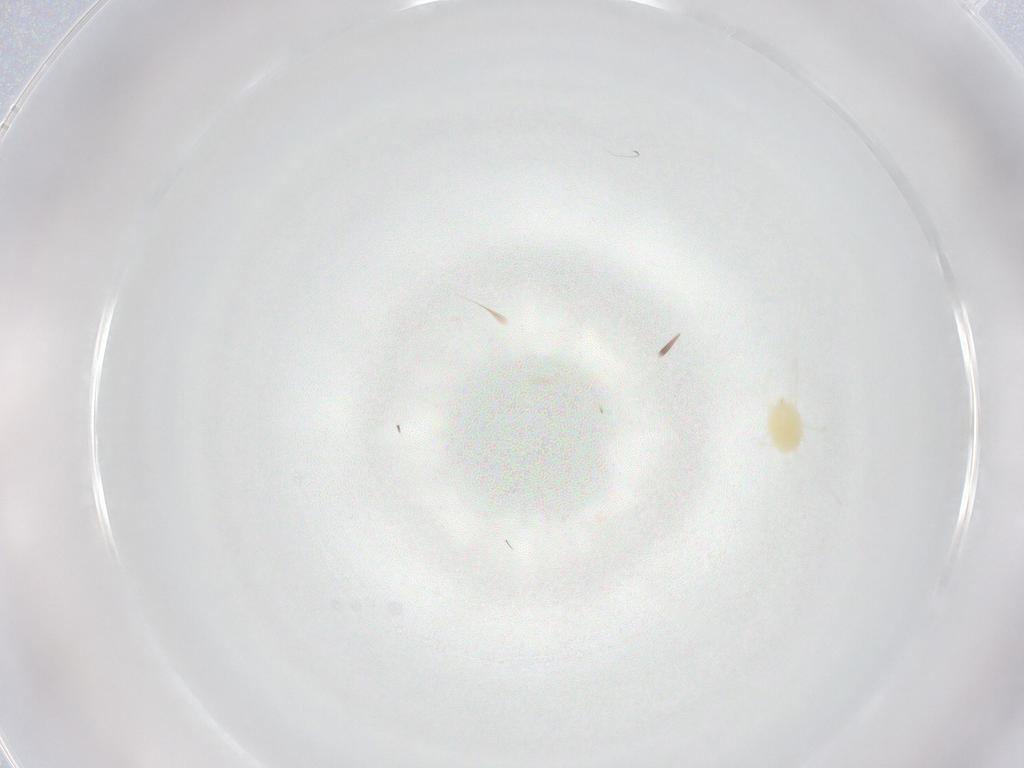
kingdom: Animalia
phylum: Arthropoda
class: Arachnida
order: Trombidiformes
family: Tetranychidae
